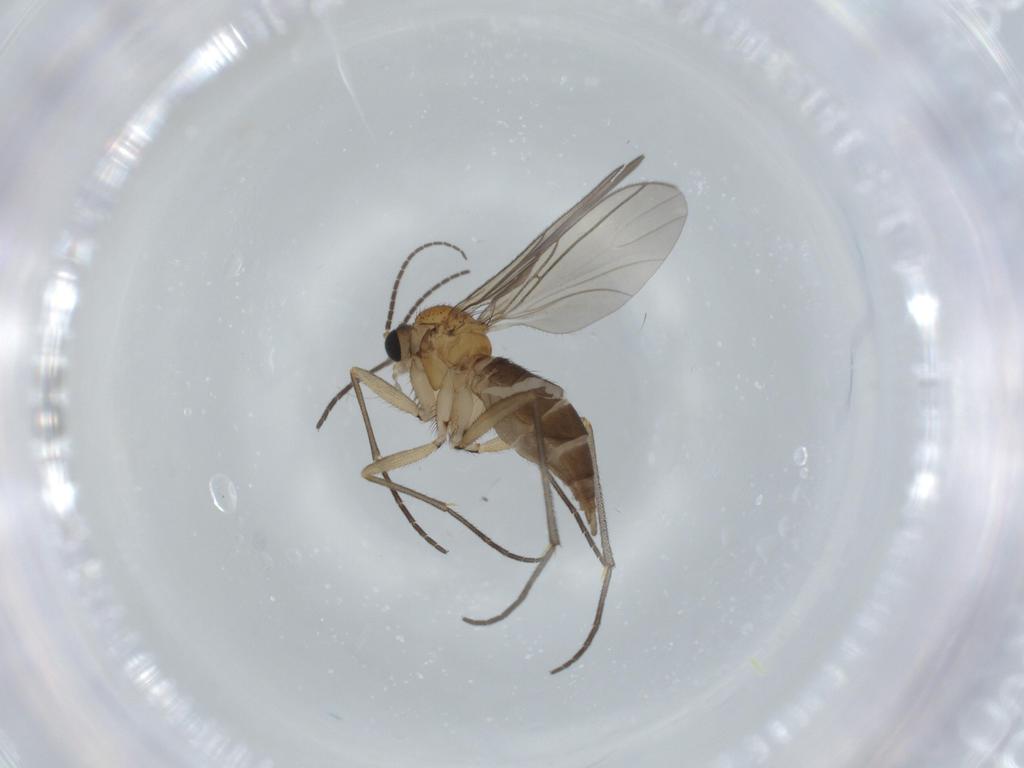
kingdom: Animalia
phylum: Arthropoda
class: Insecta
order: Diptera
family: Sciaridae
